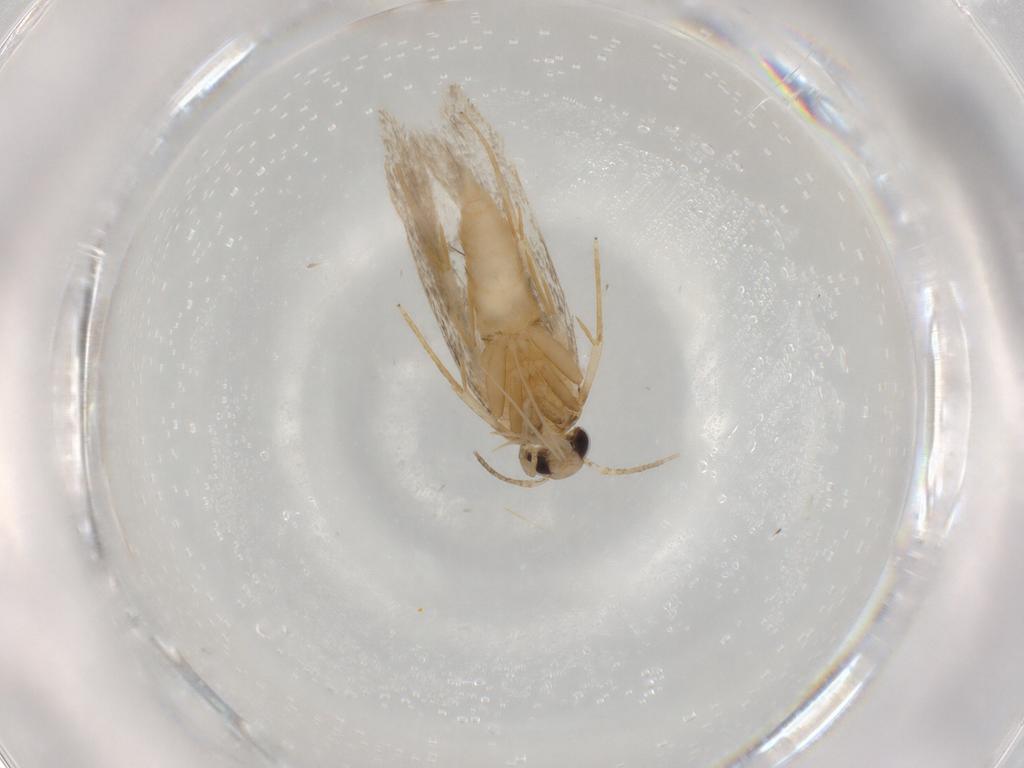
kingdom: Animalia
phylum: Arthropoda
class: Insecta
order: Lepidoptera
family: Autostichidae
